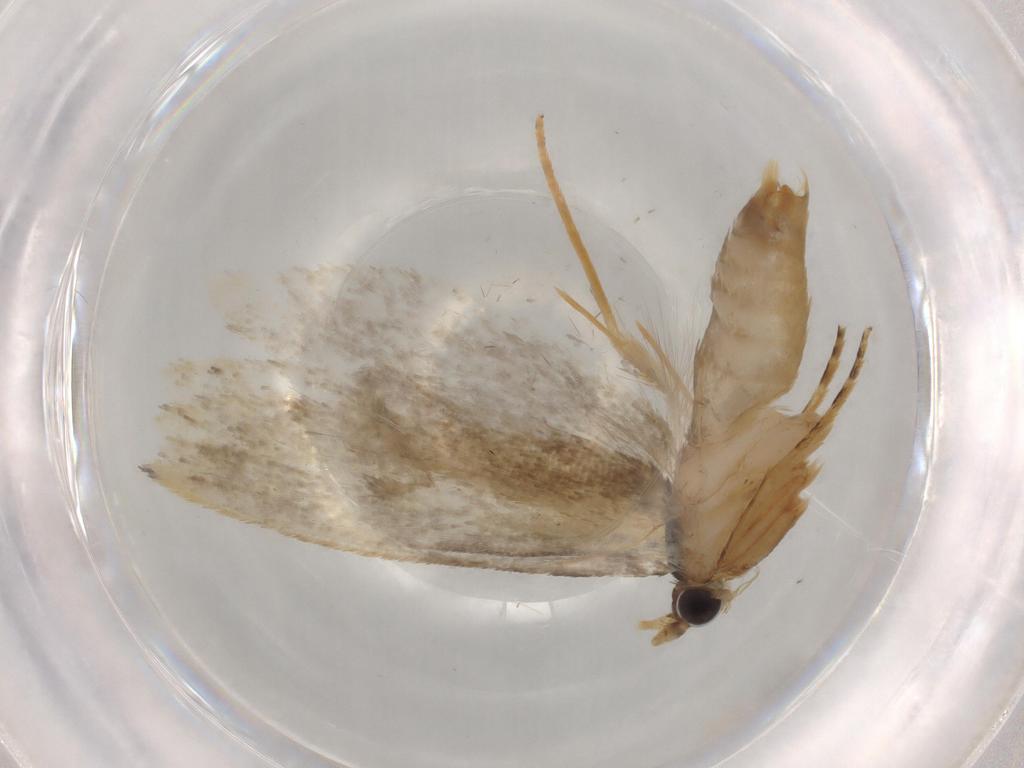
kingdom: Animalia
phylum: Arthropoda
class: Insecta
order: Lepidoptera
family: Tineidae
